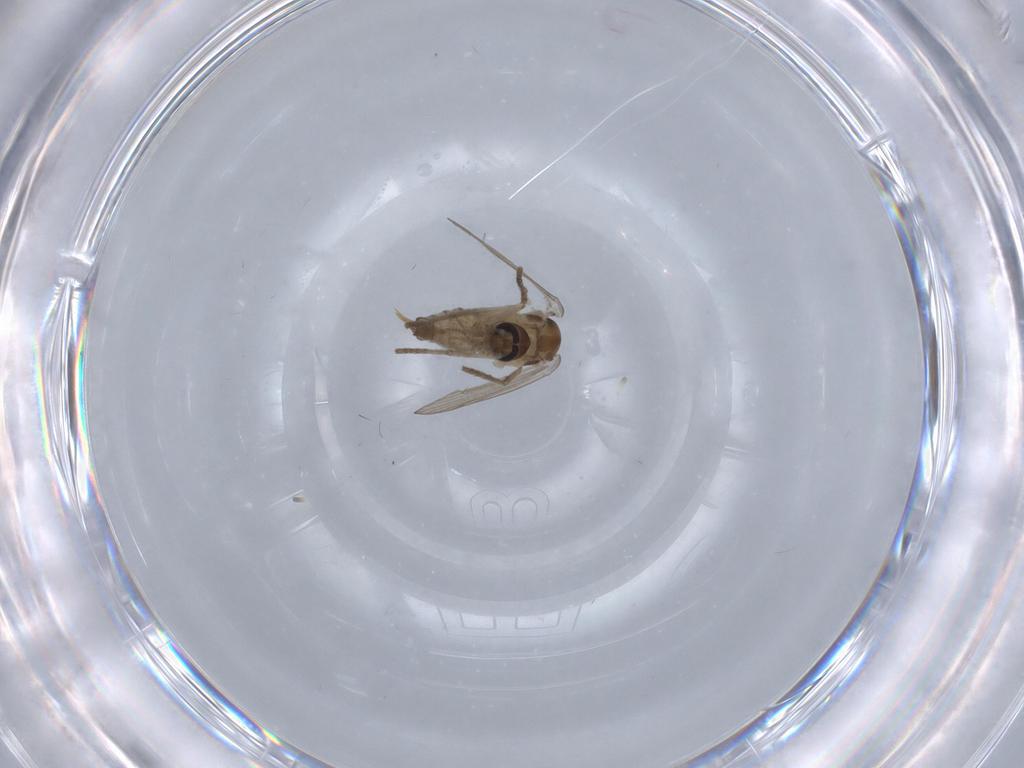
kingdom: Animalia
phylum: Arthropoda
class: Insecta
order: Diptera
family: Psychodidae
